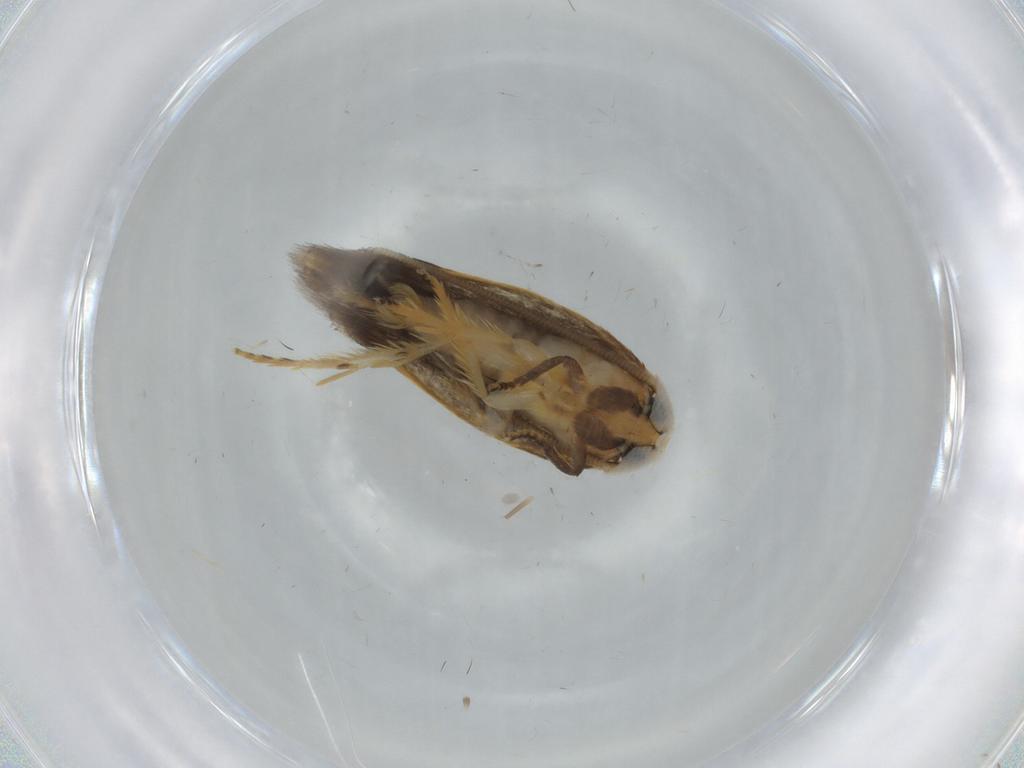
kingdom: Animalia
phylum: Arthropoda
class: Insecta
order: Lepidoptera
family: Opostegidae
